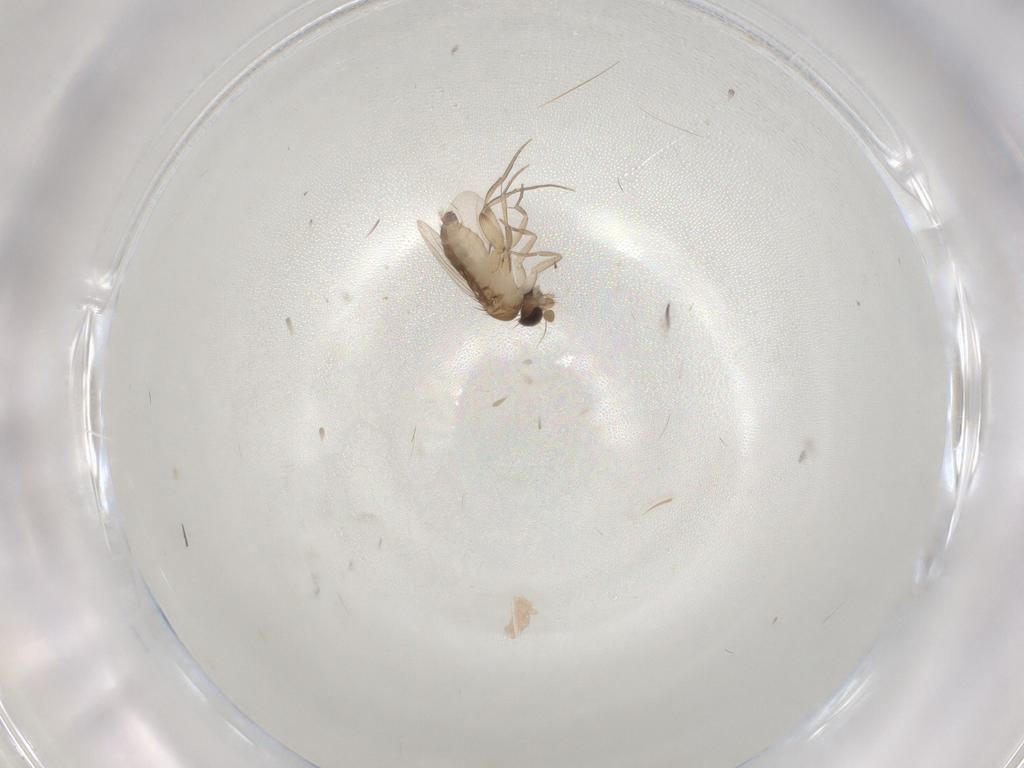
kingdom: Animalia
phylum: Arthropoda
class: Insecta
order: Diptera
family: Phoridae
